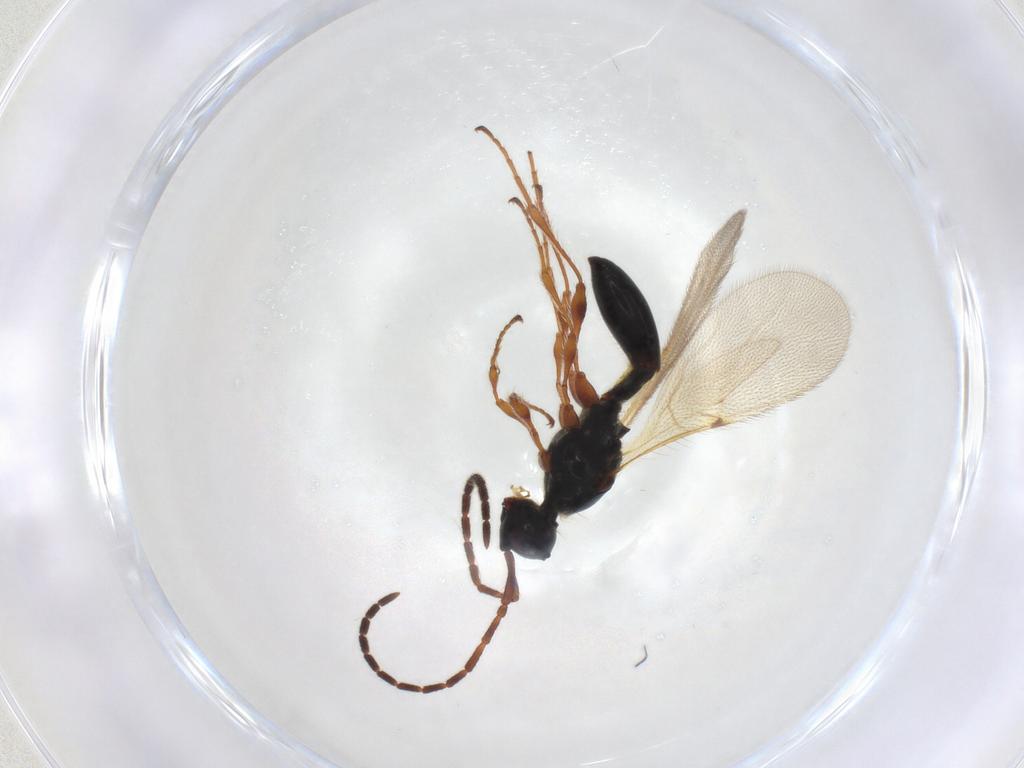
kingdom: Animalia
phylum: Arthropoda
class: Insecta
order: Hymenoptera
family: Diapriidae
